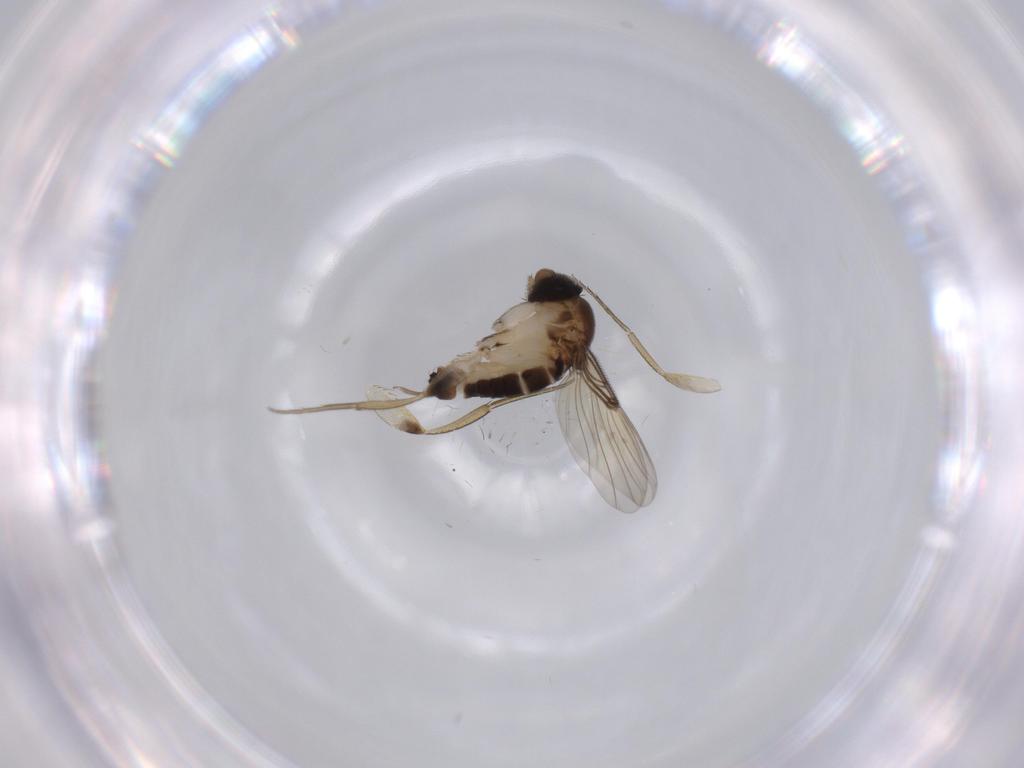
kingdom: Animalia
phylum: Arthropoda
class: Insecta
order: Diptera
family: Phoridae
